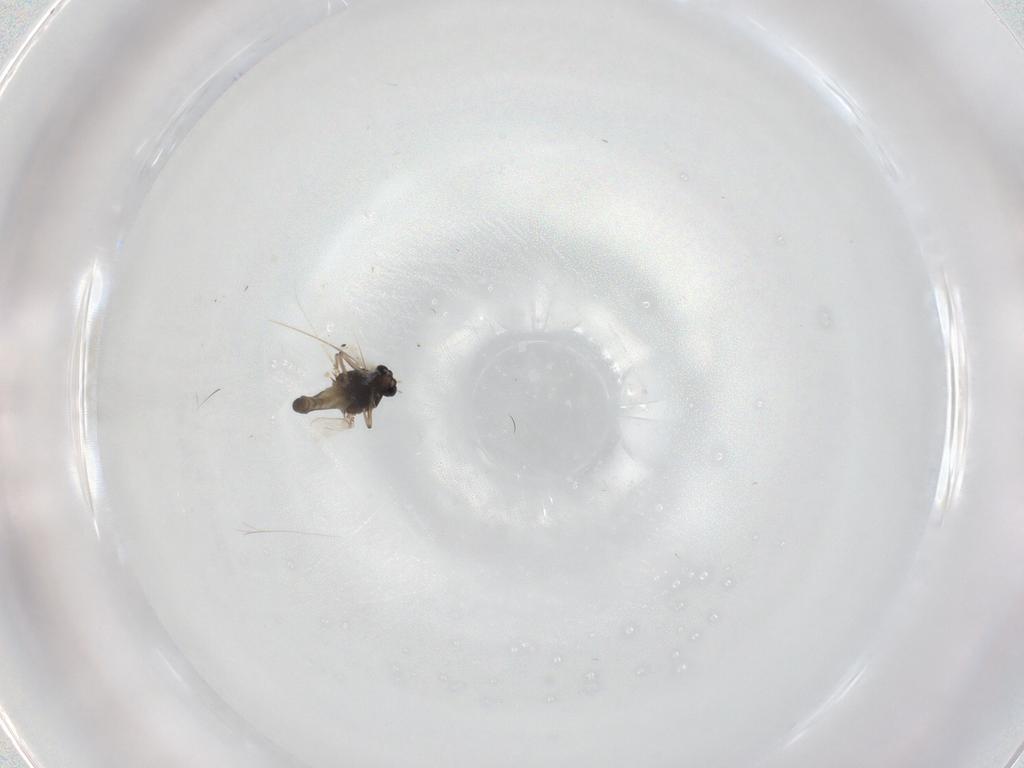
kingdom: Animalia
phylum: Arthropoda
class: Insecta
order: Diptera
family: Chironomidae
